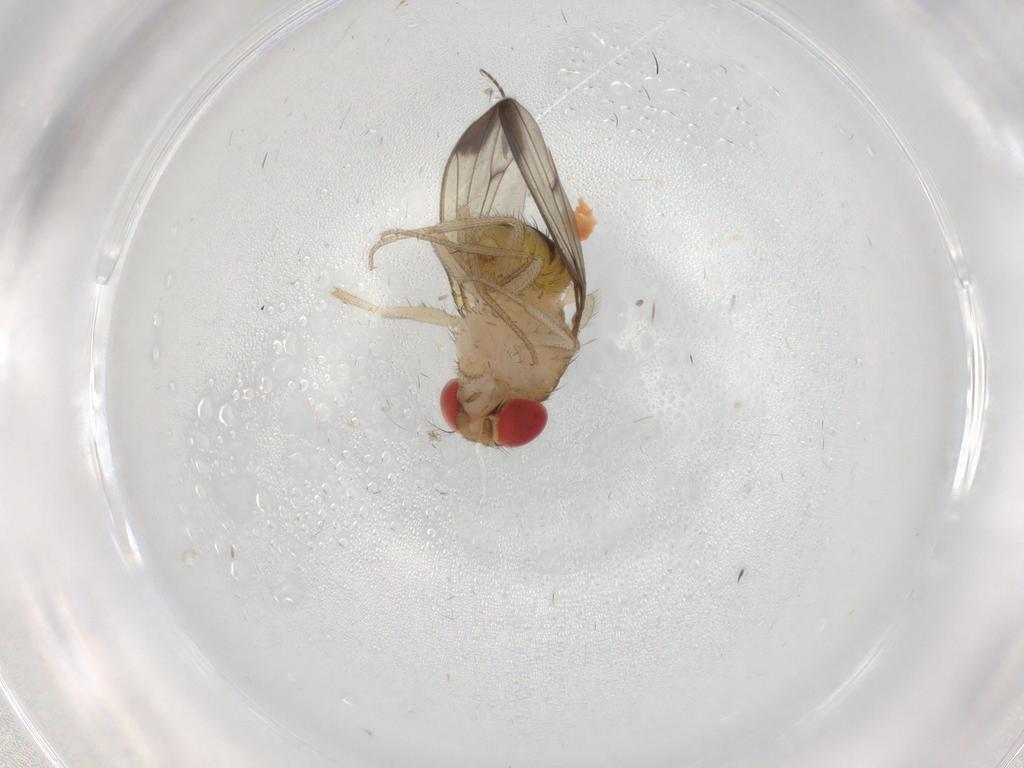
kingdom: Animalia
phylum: Arthropoda
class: Insecta
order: Diptera
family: Drosophilidae
